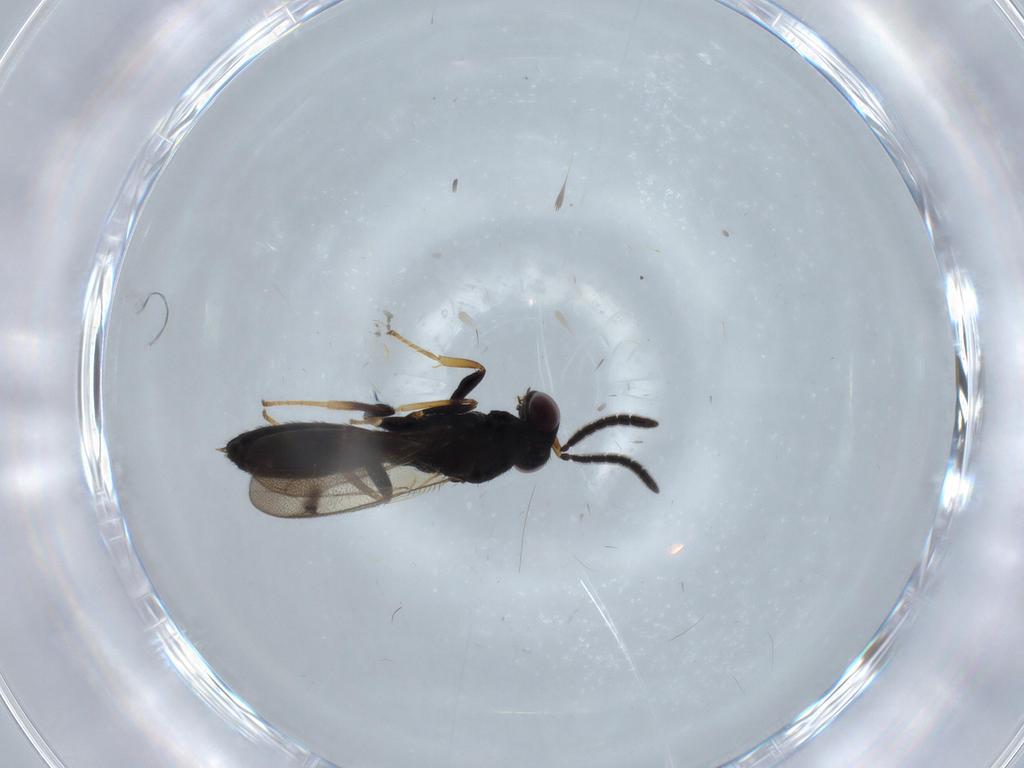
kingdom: Animalia
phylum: Arthropoda
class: Insecta
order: Hymenoptera
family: Pteromalidae
